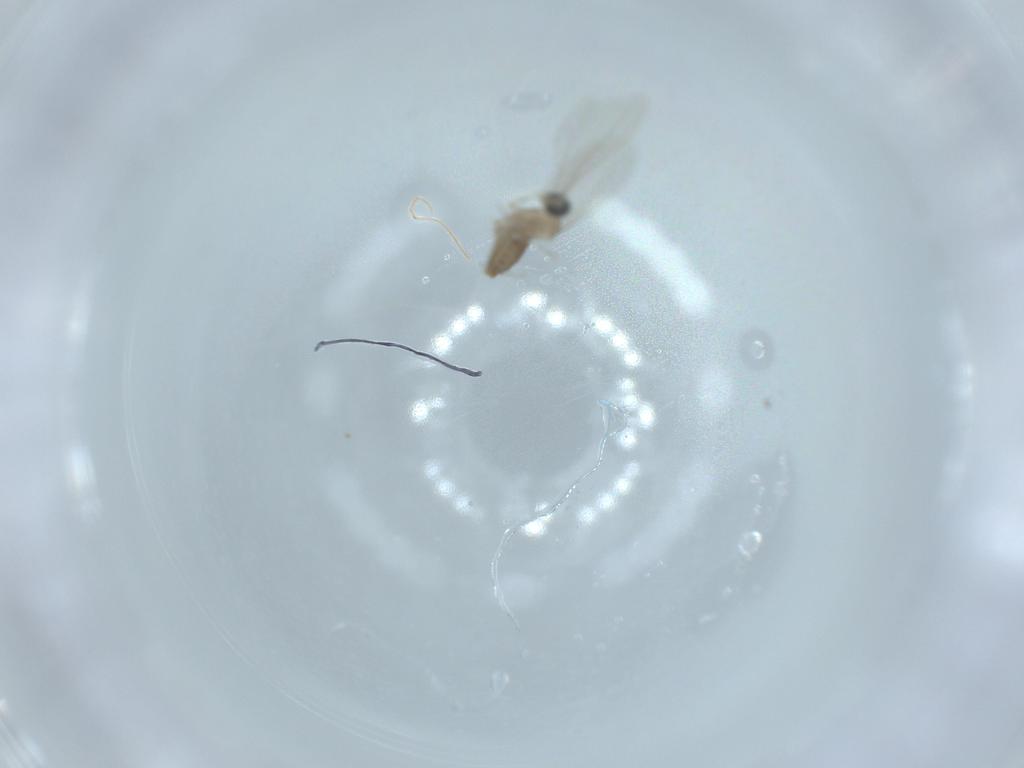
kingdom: Animalia
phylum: Arthropoda
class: Insecta
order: Diptera
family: Cecidomyiidae
